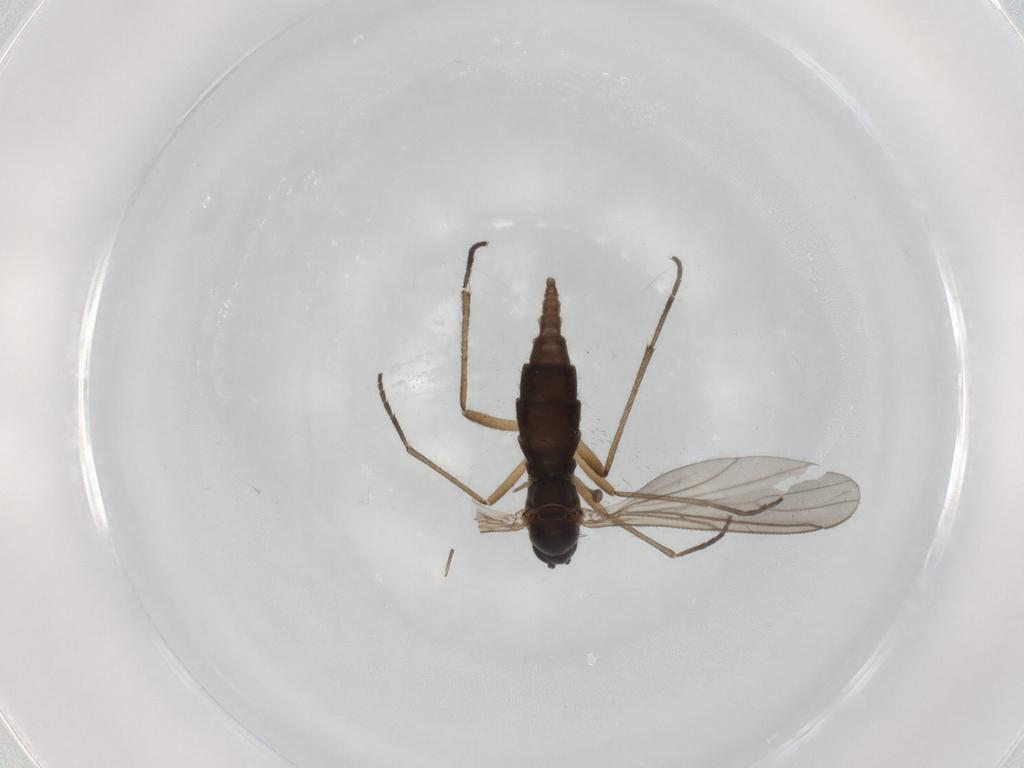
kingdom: Animalia
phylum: Arthropoda
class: Insecta
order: Diptera
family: Sciaridae
